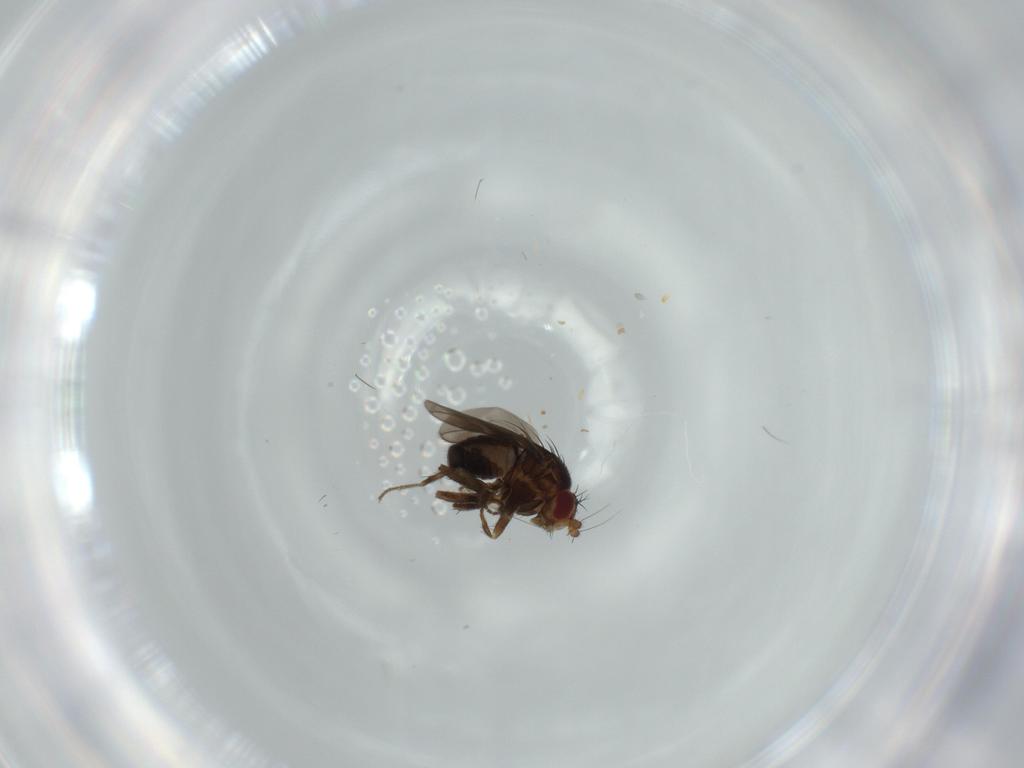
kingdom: Animalia
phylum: Arthropoda
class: Insecta
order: Diptera
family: Sphaeroceridae
